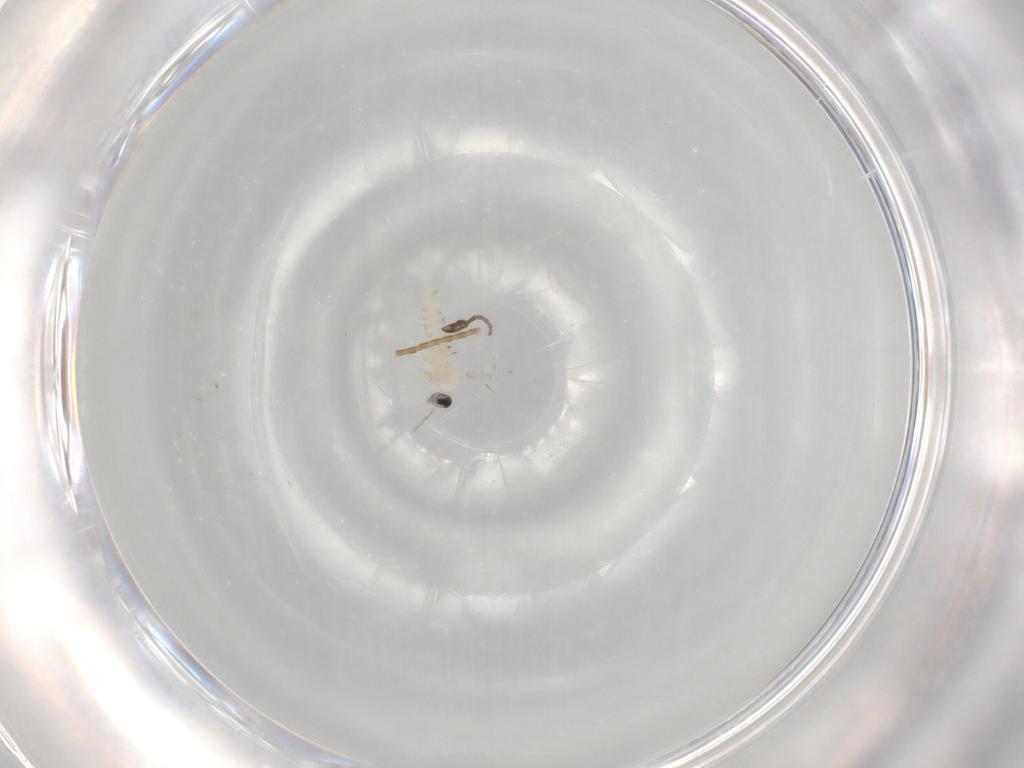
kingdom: Animalia
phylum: Arthropoda
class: Insecta
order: Diptera
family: Cecidomyiidae
